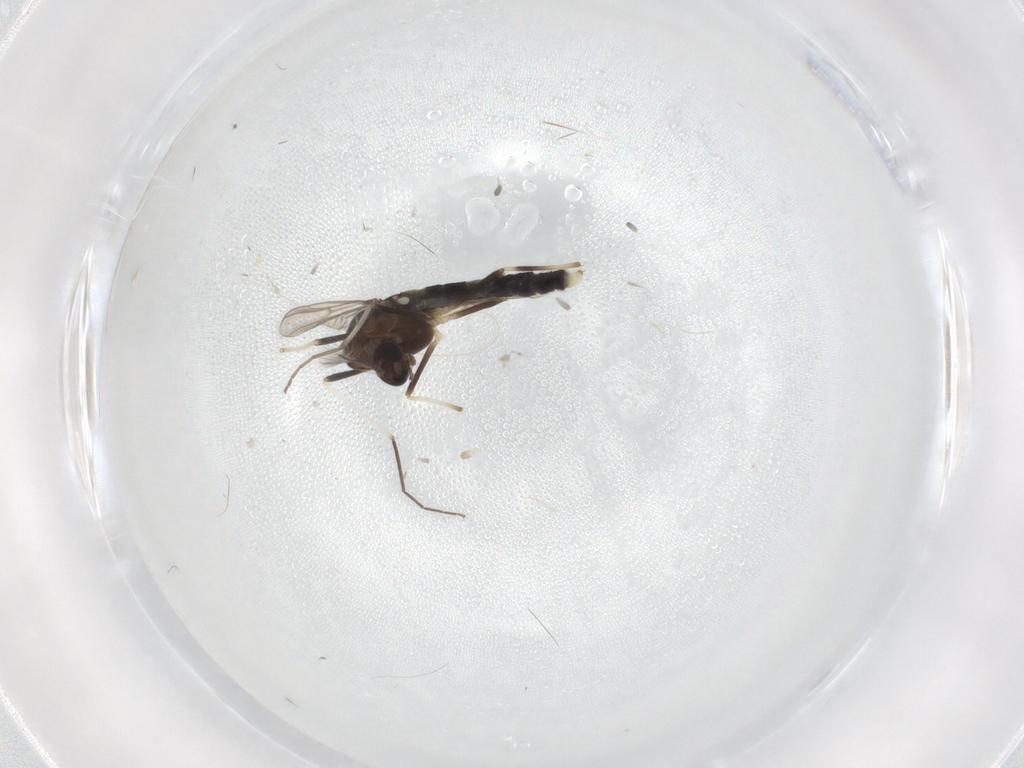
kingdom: Animalia
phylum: Arthropoda
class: Insecta
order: Diptera
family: Chironomidae
